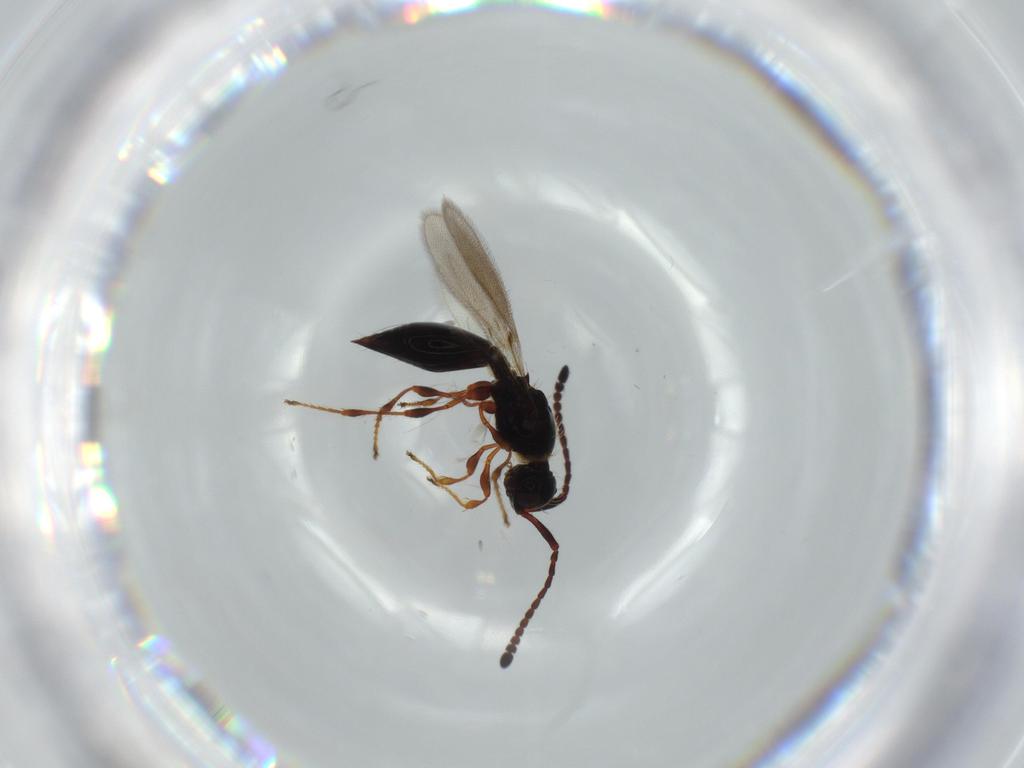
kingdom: Animalia
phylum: Arthropoda
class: Insecta
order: Hymenoptera
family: Diapriidae
